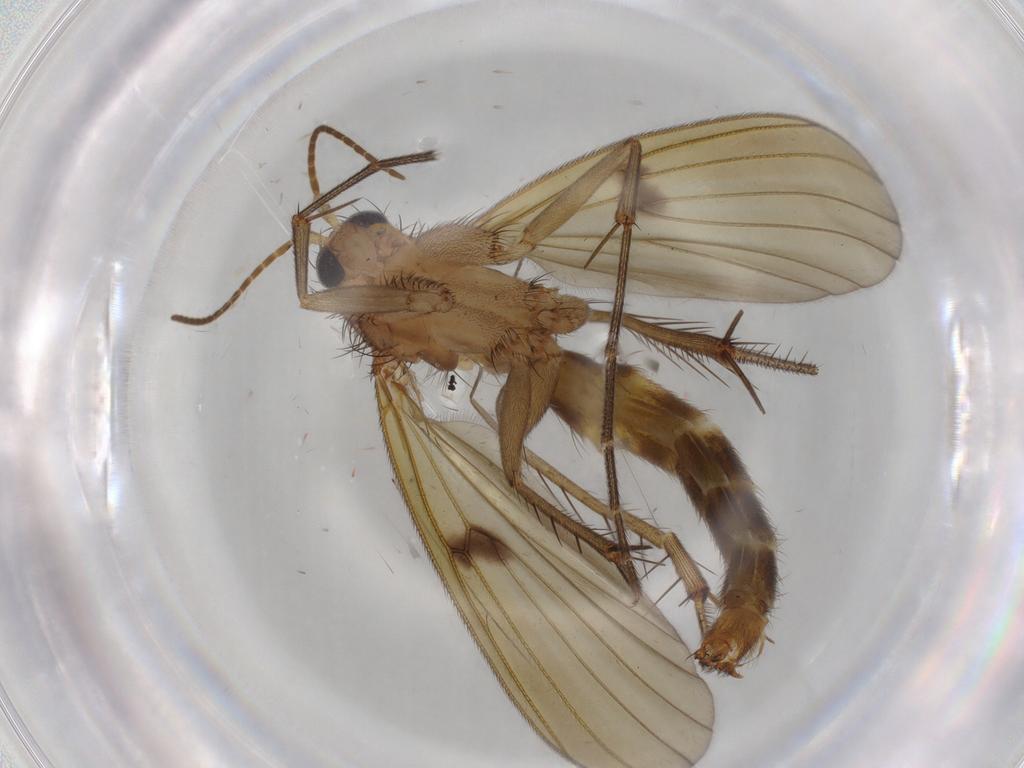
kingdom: Animalia
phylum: Arthropoda
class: Insecta
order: Diptera
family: Mycetophilidae
